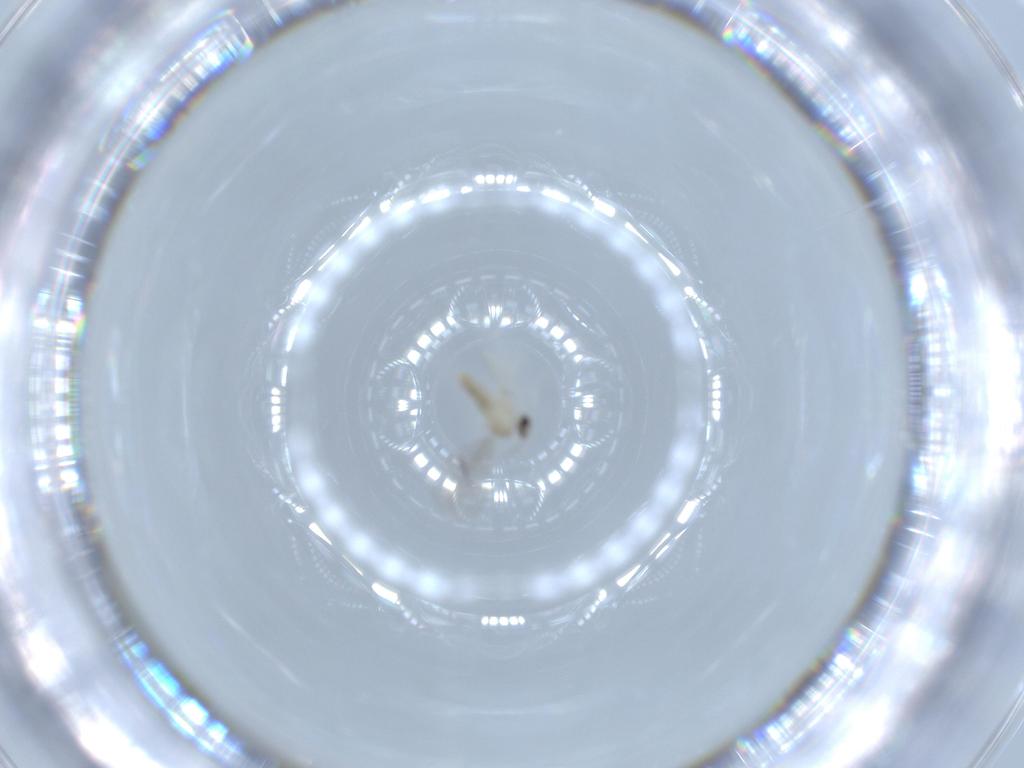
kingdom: Animalia
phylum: Arthropoda
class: Insecta
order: Diptera
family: Cecidomyiidae
